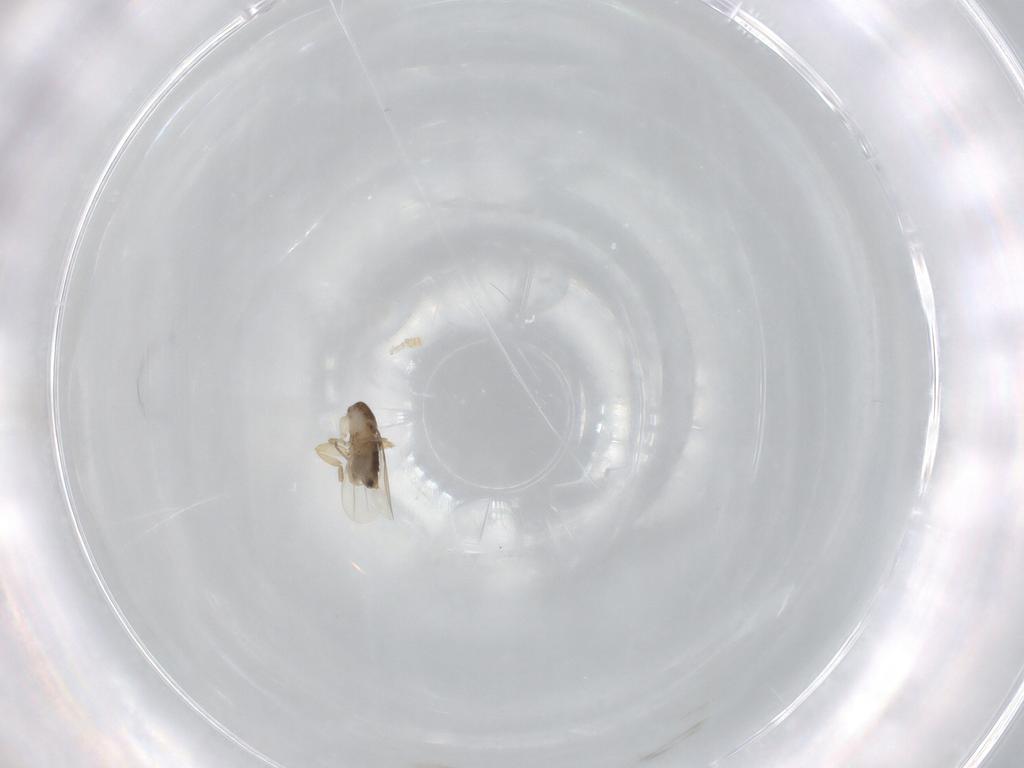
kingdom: Animalia
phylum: Arthropoda
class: Insecta
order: Diptera
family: Phoridae
